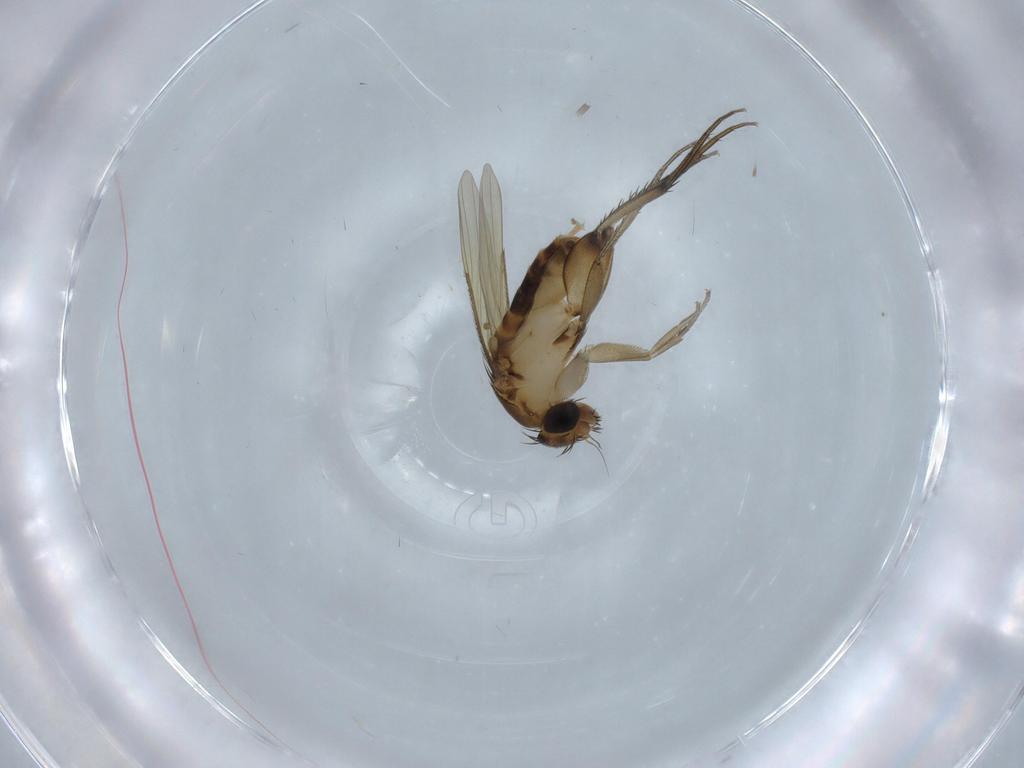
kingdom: Animalia
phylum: Arthropoda
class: Insecta
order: Diptera
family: Phoridae
